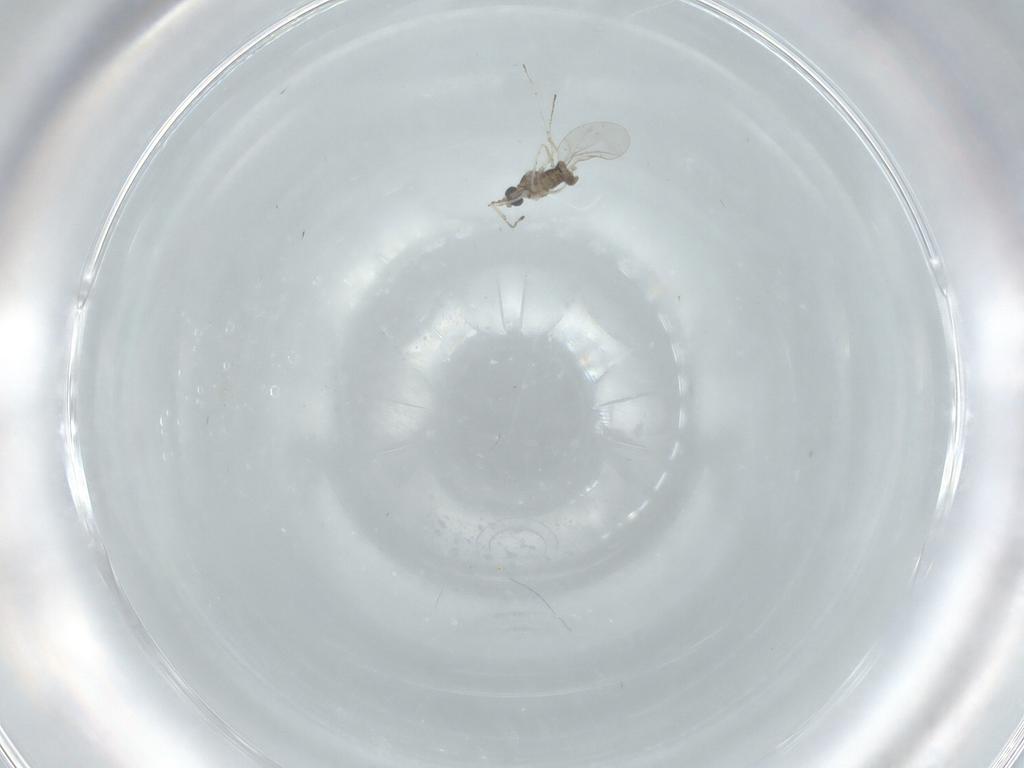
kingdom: Animalia
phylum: Arthropoda
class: Insecta
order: Diptera
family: Cecidomyiidae
